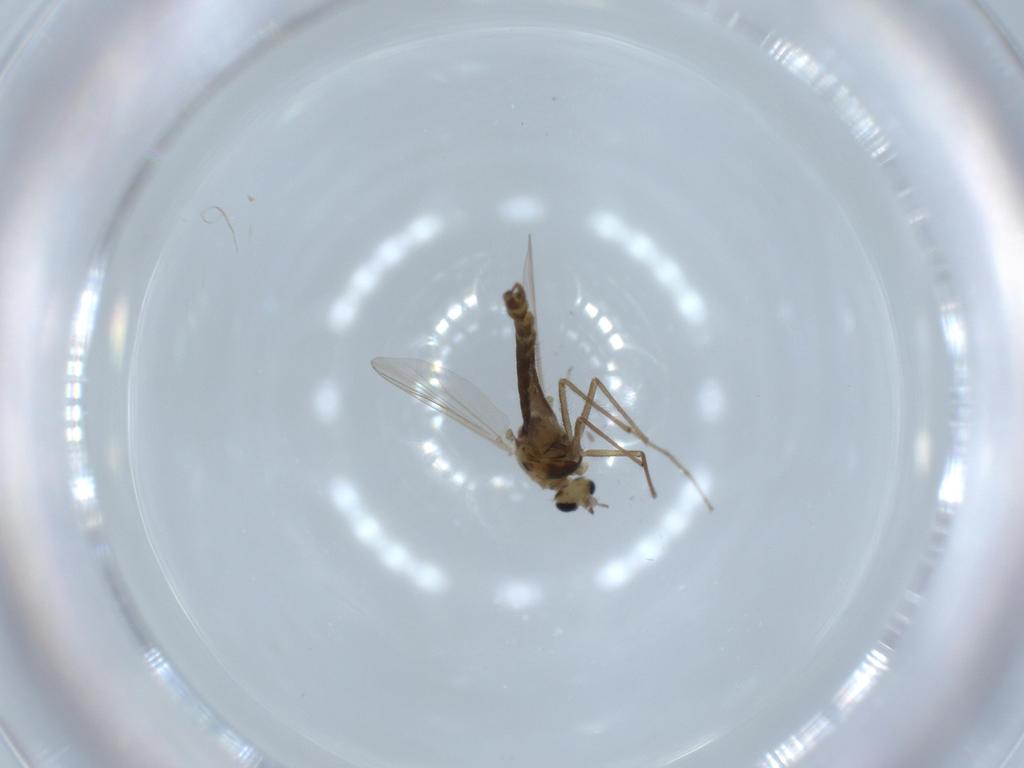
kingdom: Animalia
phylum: Arthropoda
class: Insecta
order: Diptera
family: Chironomidae
